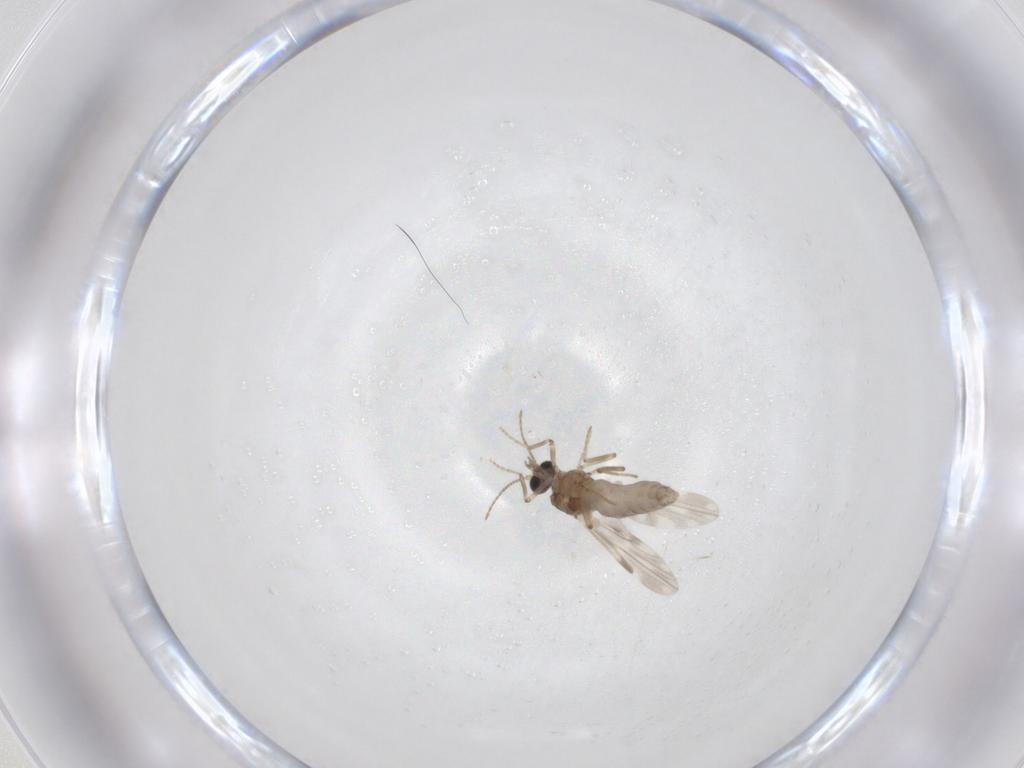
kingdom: Animalia
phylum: Arthropoda
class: Insecta
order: Diptera
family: Ceratopogonidae
